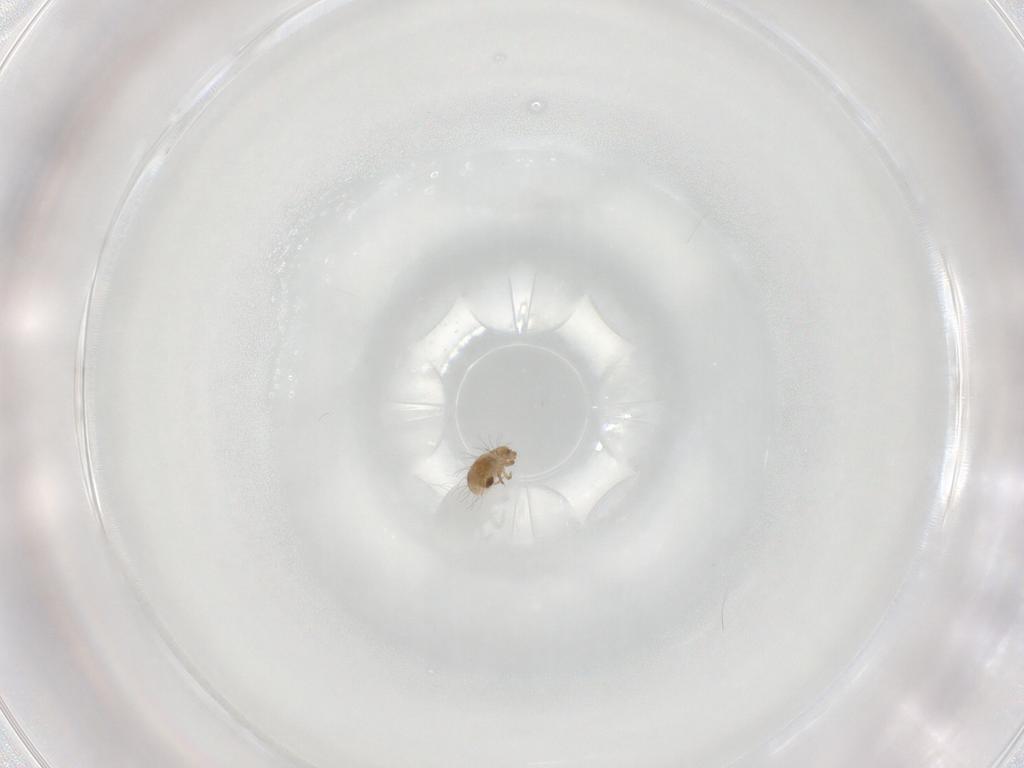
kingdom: Animalia
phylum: Arthropoda
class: Arachnida
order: Sarcoptiformes
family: Humerobatidae
